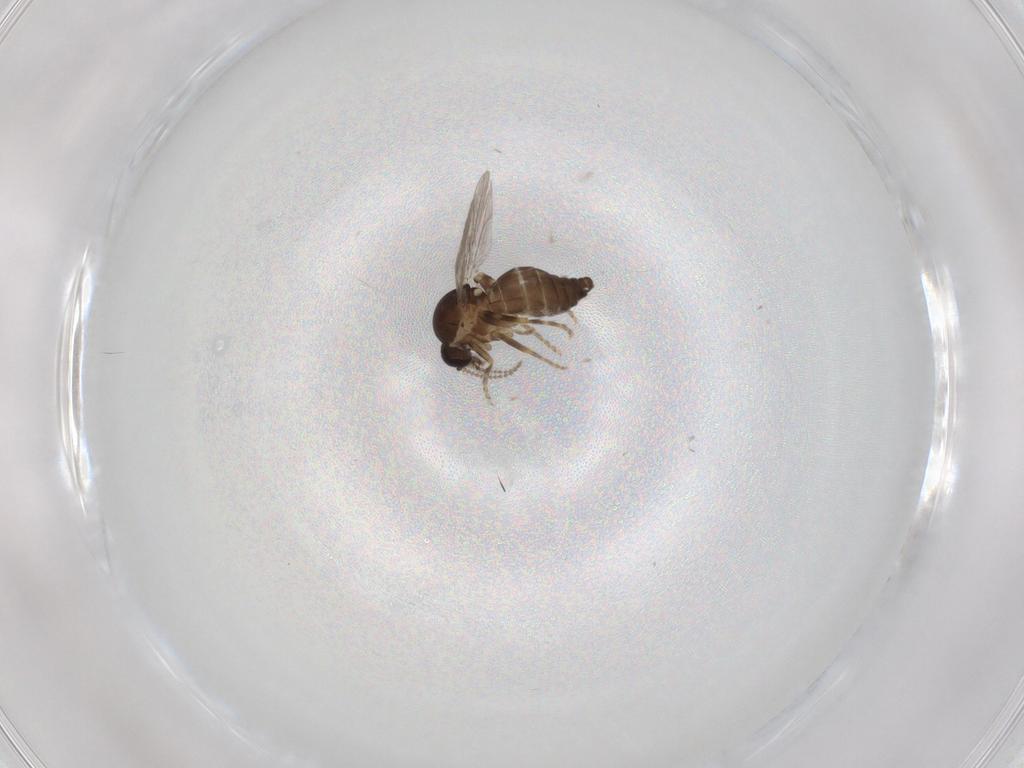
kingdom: Animalia
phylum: Arthropoda
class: Insecta
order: Diptera
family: Ceratopogonidae
